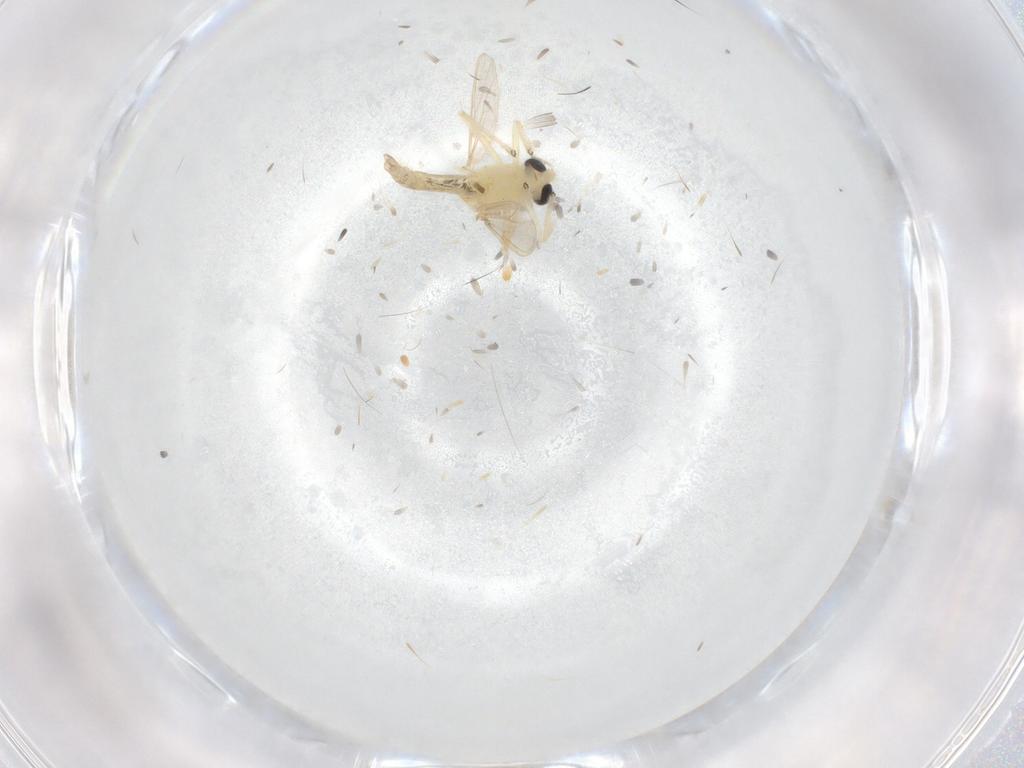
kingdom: Animalia
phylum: Arthropoda
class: Insecta
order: Diptera
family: Chironomidae
